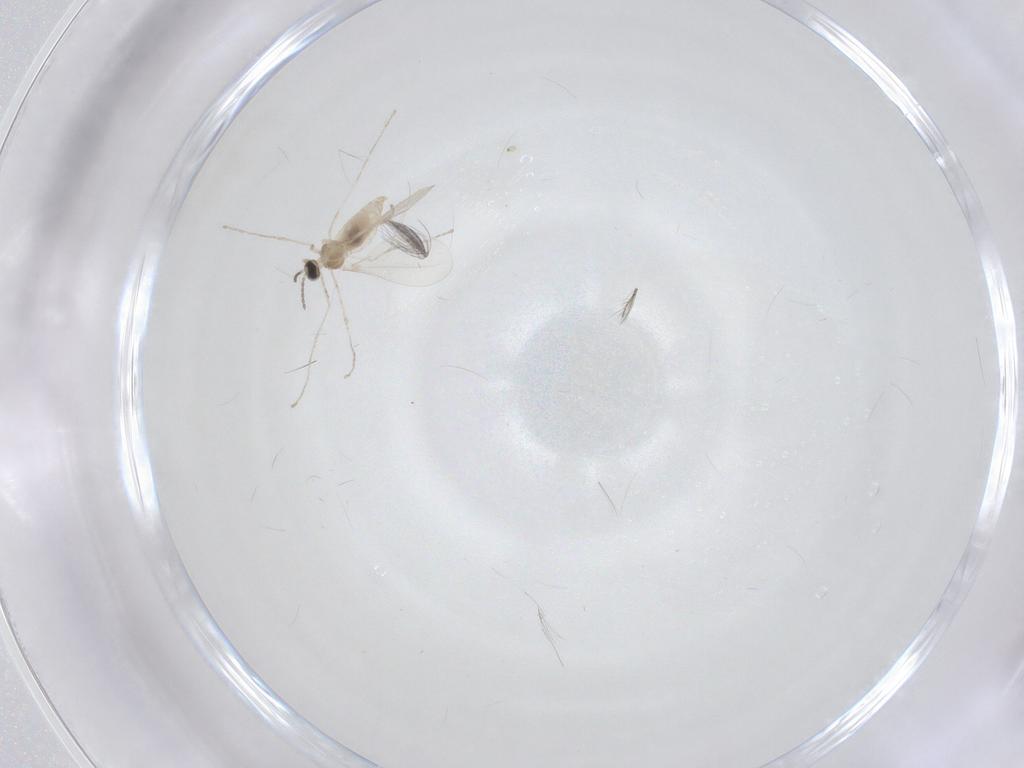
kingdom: Animalia
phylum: Arthropoda
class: Insecta
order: Diptera
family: Ceratopogonidae
